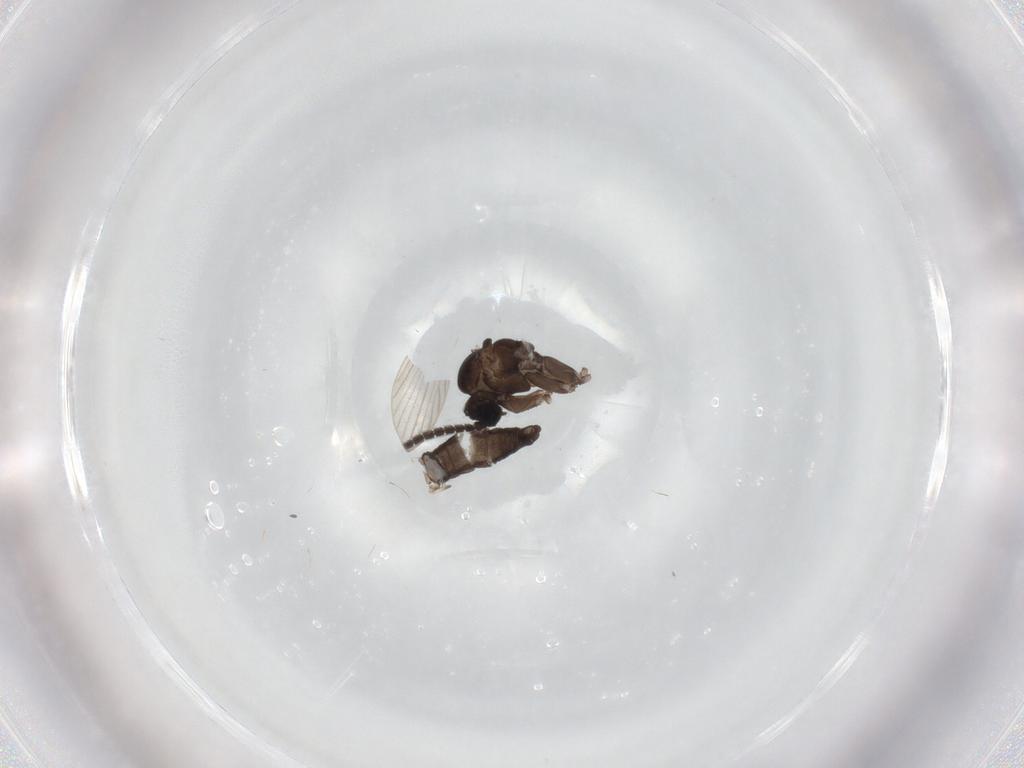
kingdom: Animalia
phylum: Arthropoda
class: Insecta
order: Diptera
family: Sciaridae
